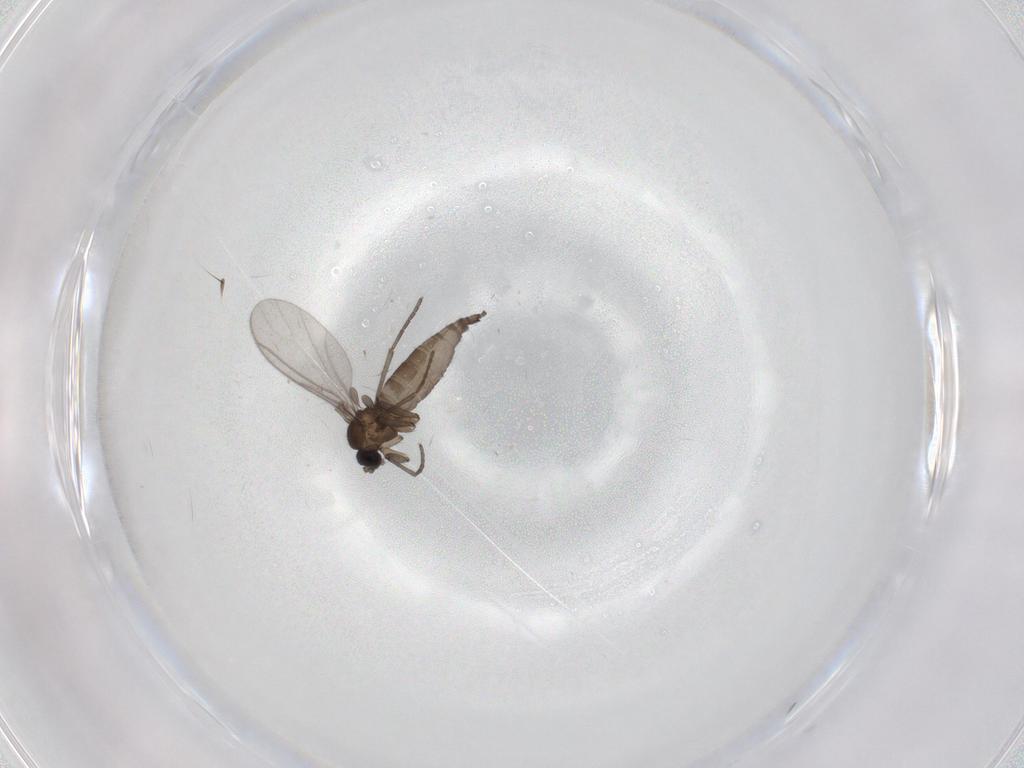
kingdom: Animalia
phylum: Arthropoda
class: Insecta
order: Diptera
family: Sciaridae
